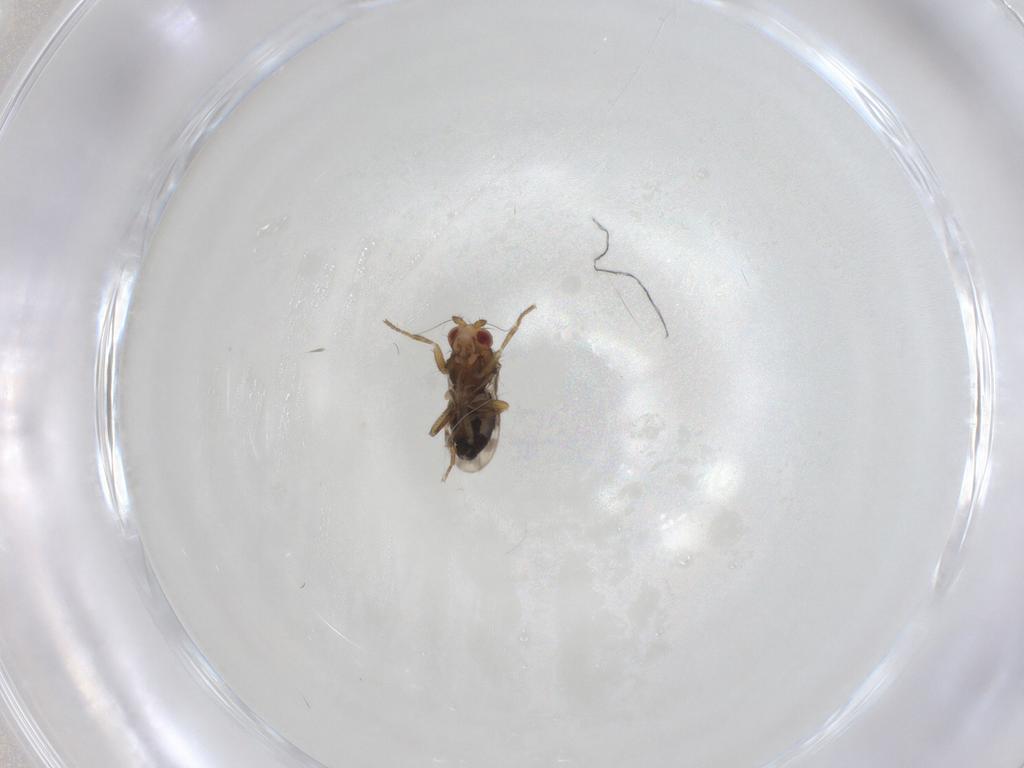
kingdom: Animalia
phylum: Arthropoda
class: Insecta
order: Diptera
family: Sphaeroceridae
